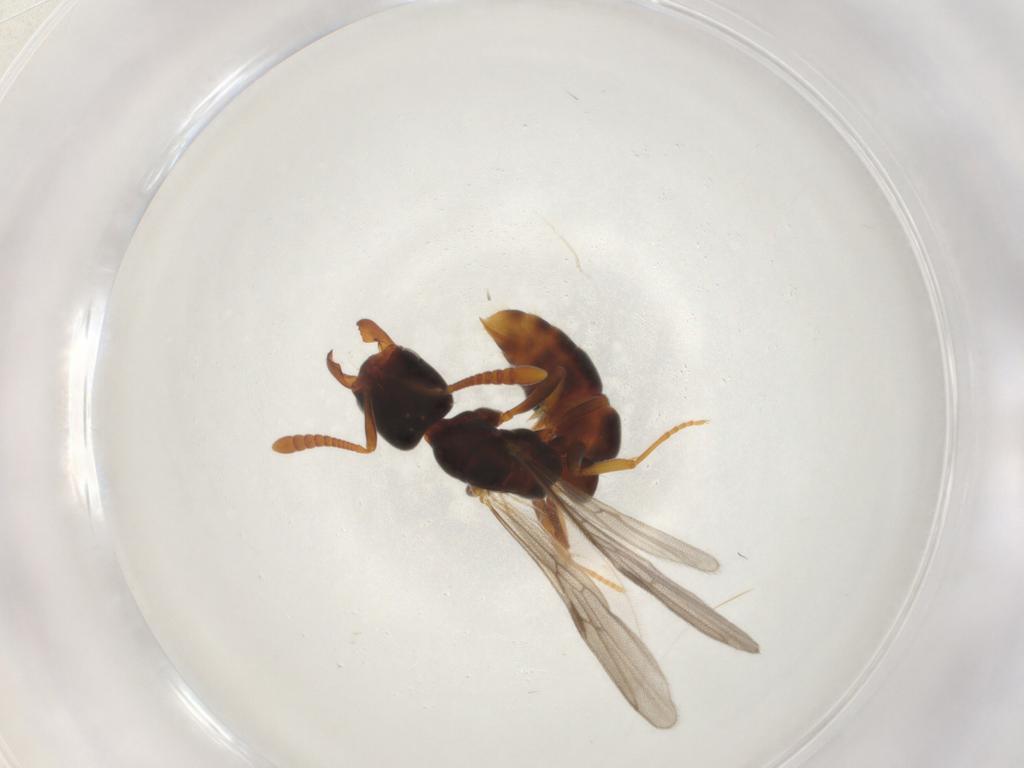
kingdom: Animalia
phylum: Arthropoda
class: Insecta
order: Hymenoptera
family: Formicidae
